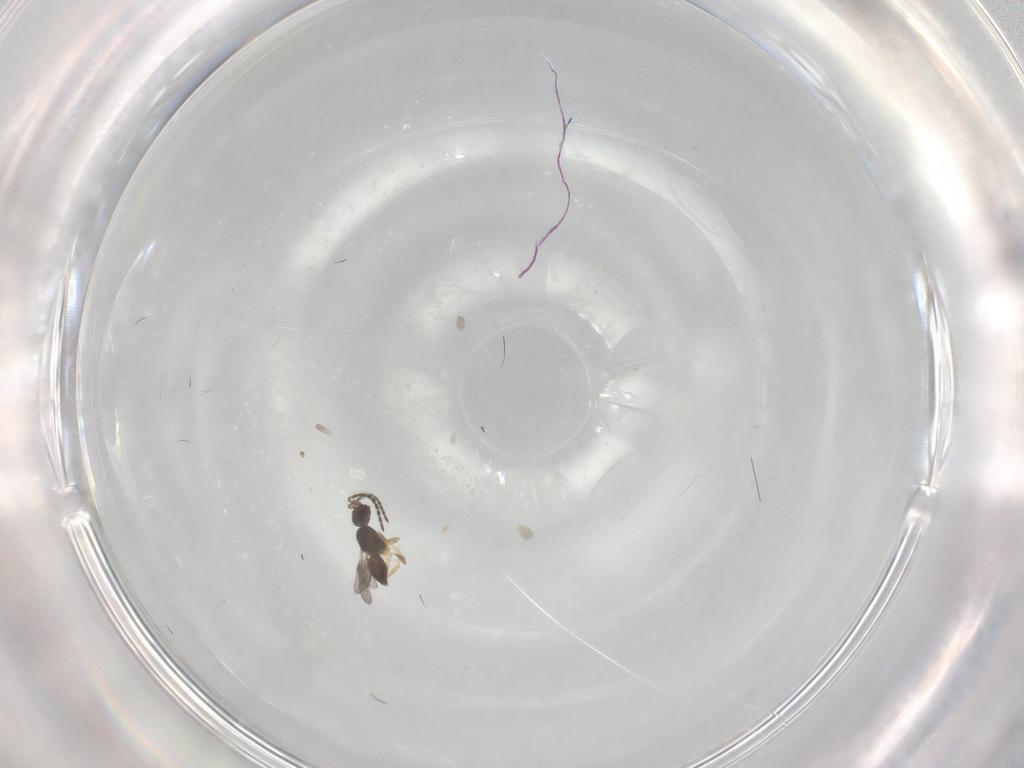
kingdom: Animalia
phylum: Arthropoda
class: Insecta
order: Hymenoptera
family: Ceraphronidae
